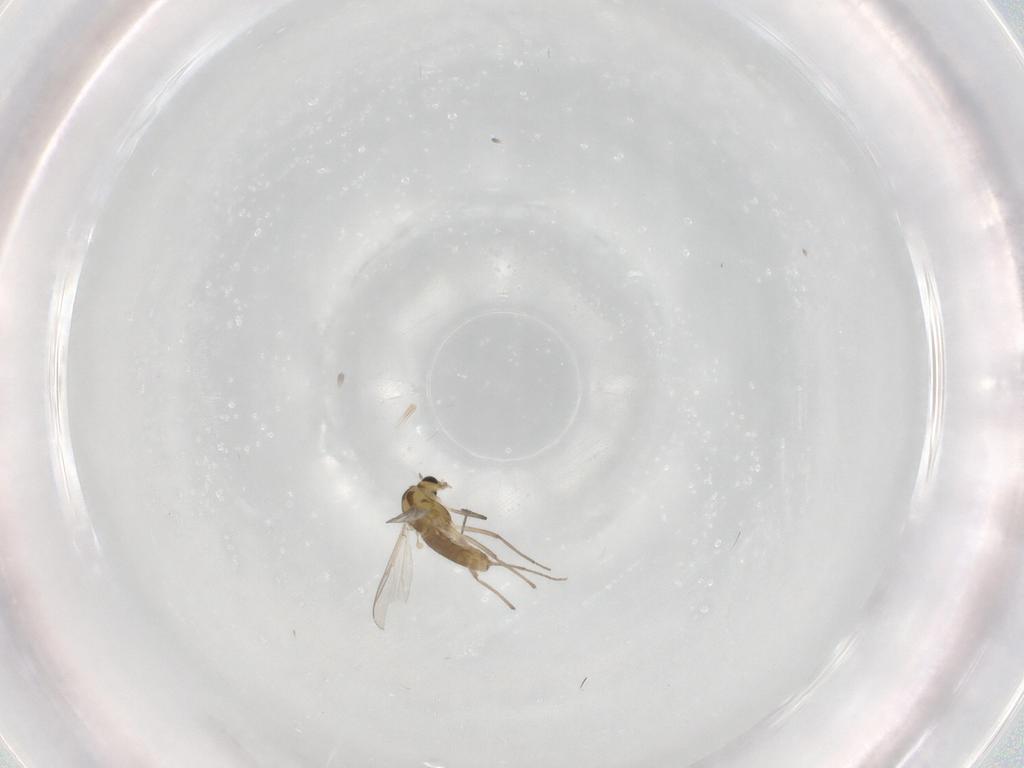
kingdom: Animalia
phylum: Arthropoda
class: Insecta
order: Diptera
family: Chironomidae
